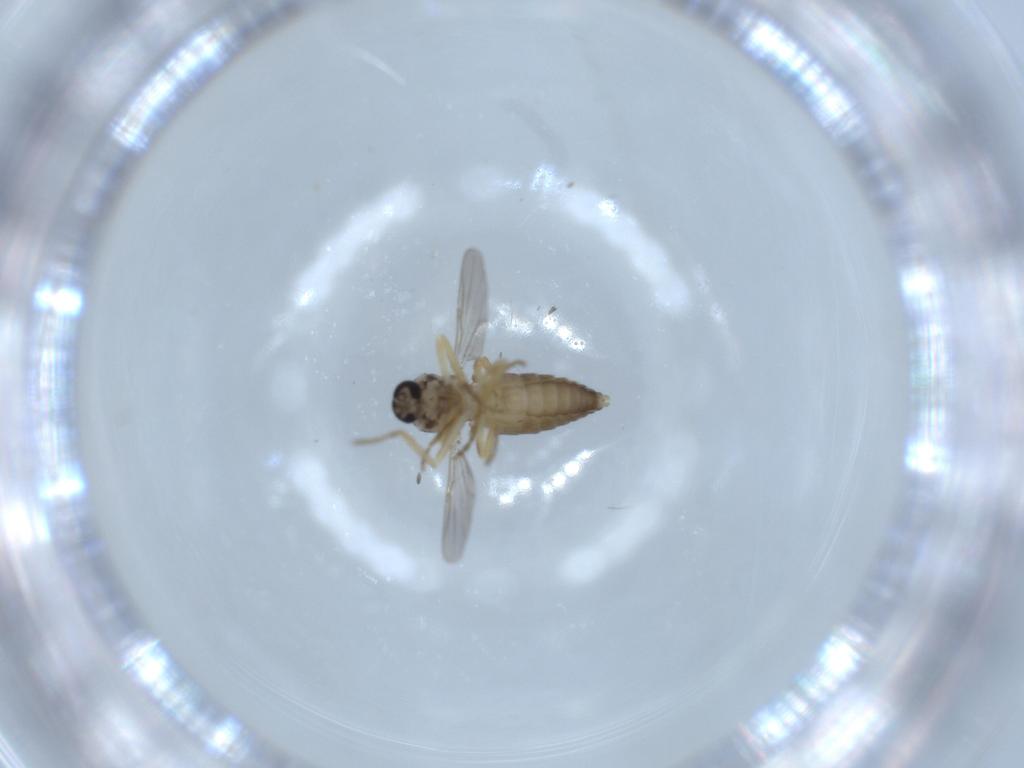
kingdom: Animalia
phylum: Arthropoda
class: Insecta
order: Diptera
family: Ceratopogonidae
